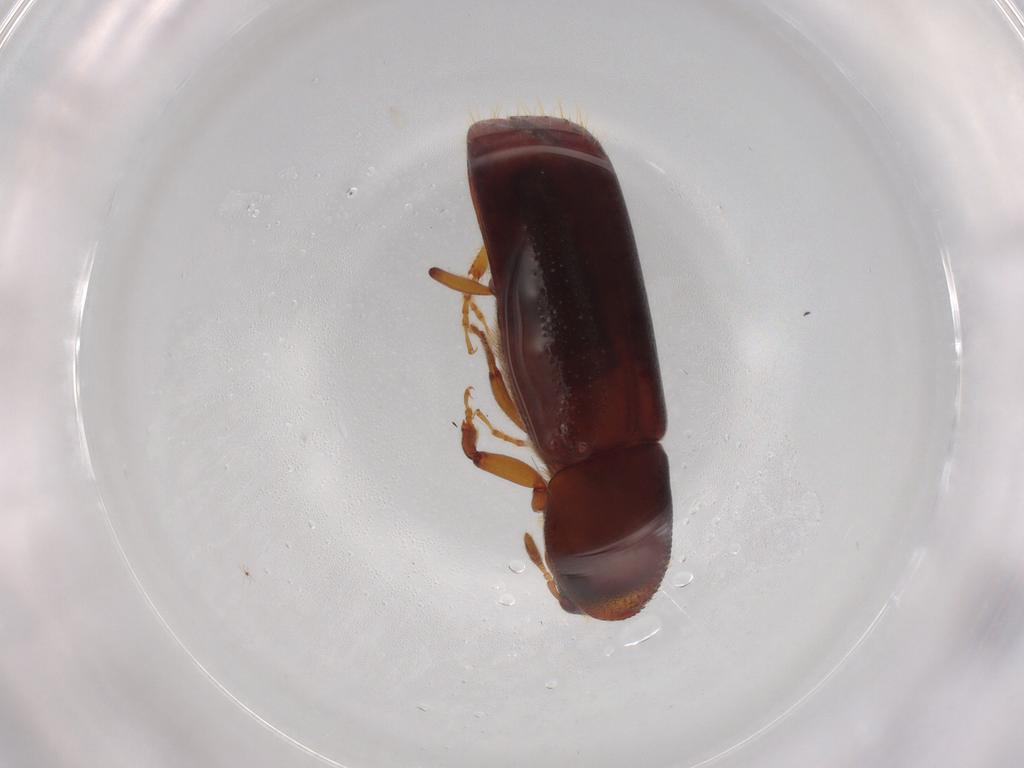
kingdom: Animalia
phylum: Arthropoda
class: Insecta
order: Coleoptera
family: Curculionidae
